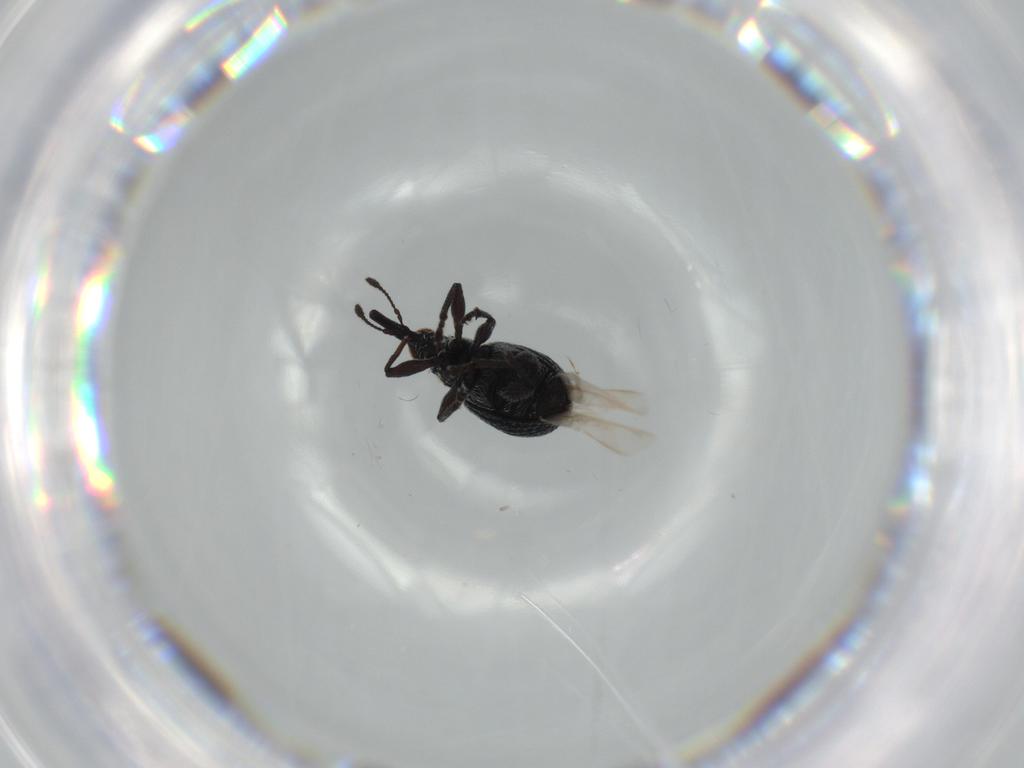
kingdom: Animalia
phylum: Arthropoda
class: Insecta
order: Coleoptera
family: Brentidae
